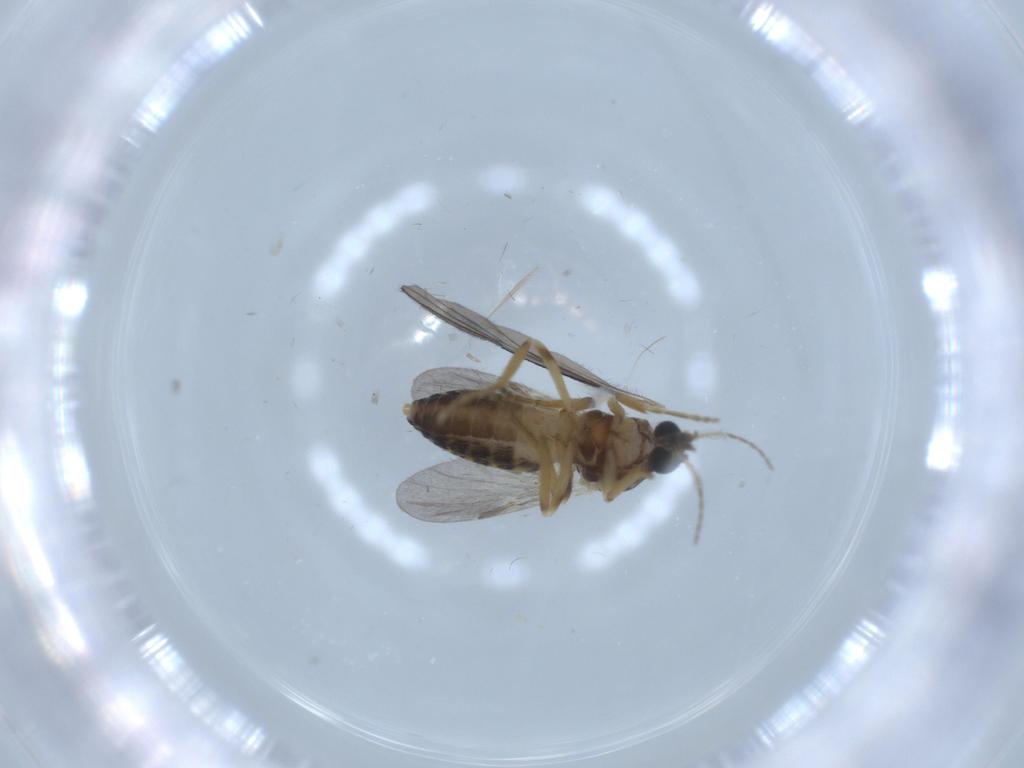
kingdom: Animalia
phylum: Arthropoda
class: Insecta
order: Diptera
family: Ceratopogonidae
